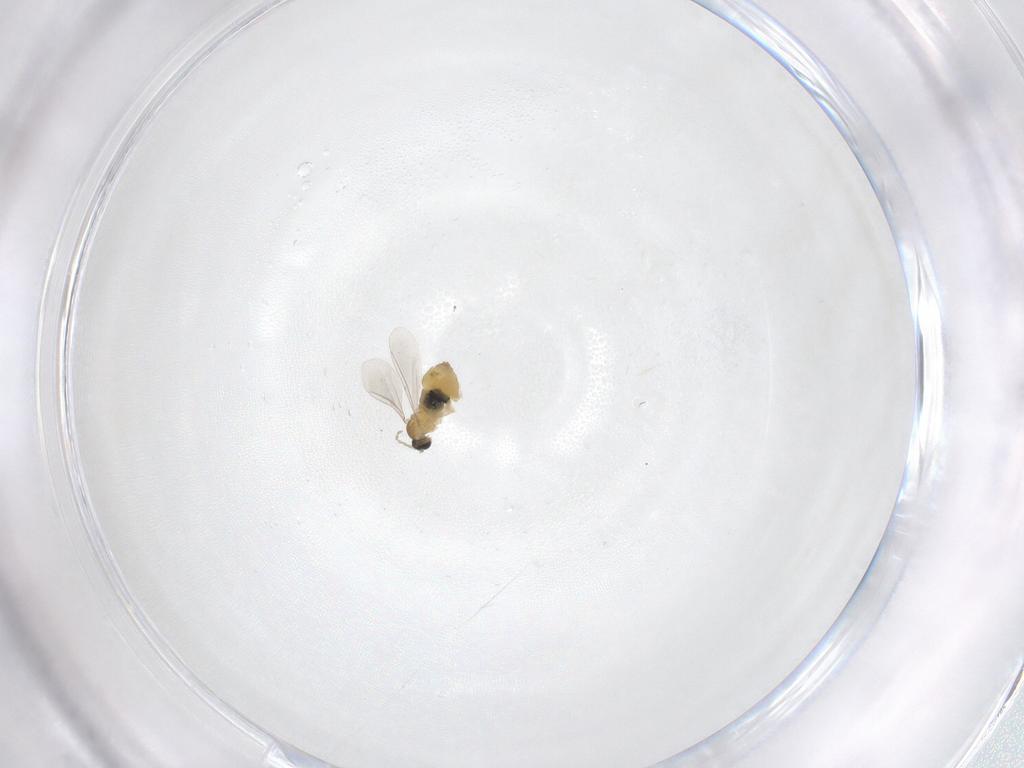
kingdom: Animalia
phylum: Arthropoda
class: Insecta
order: Diptera
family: Cecidomyiidae
